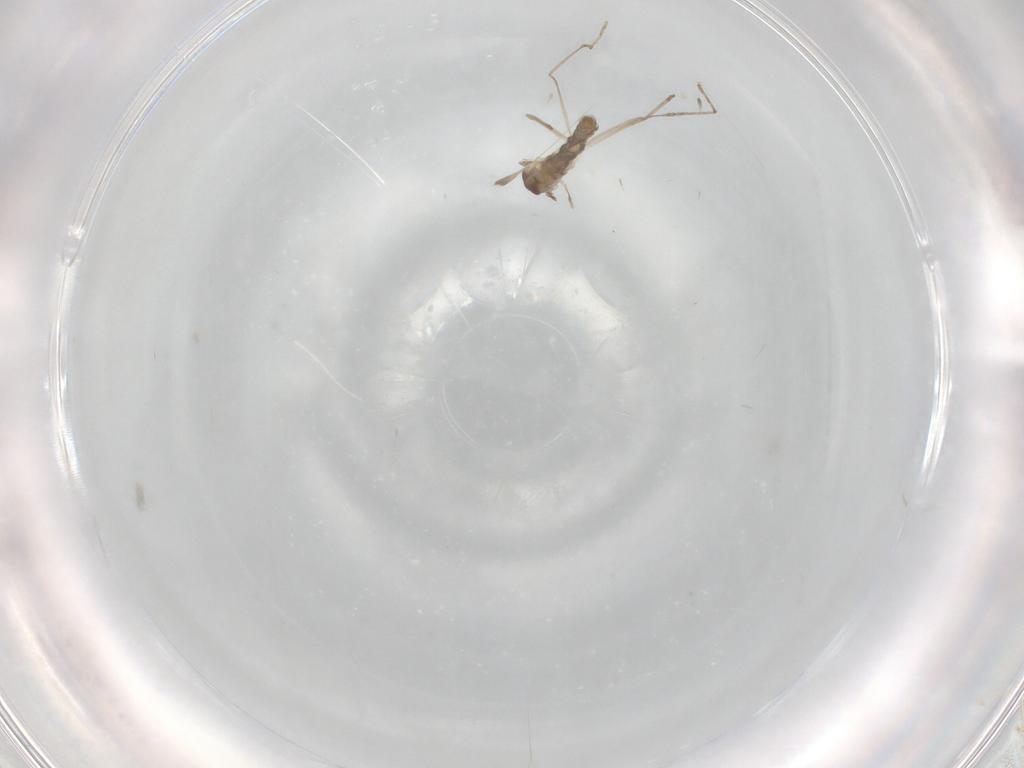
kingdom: Animalia
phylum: Arthropoda
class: Insecta
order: Diptera
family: Cecidomyiidae
